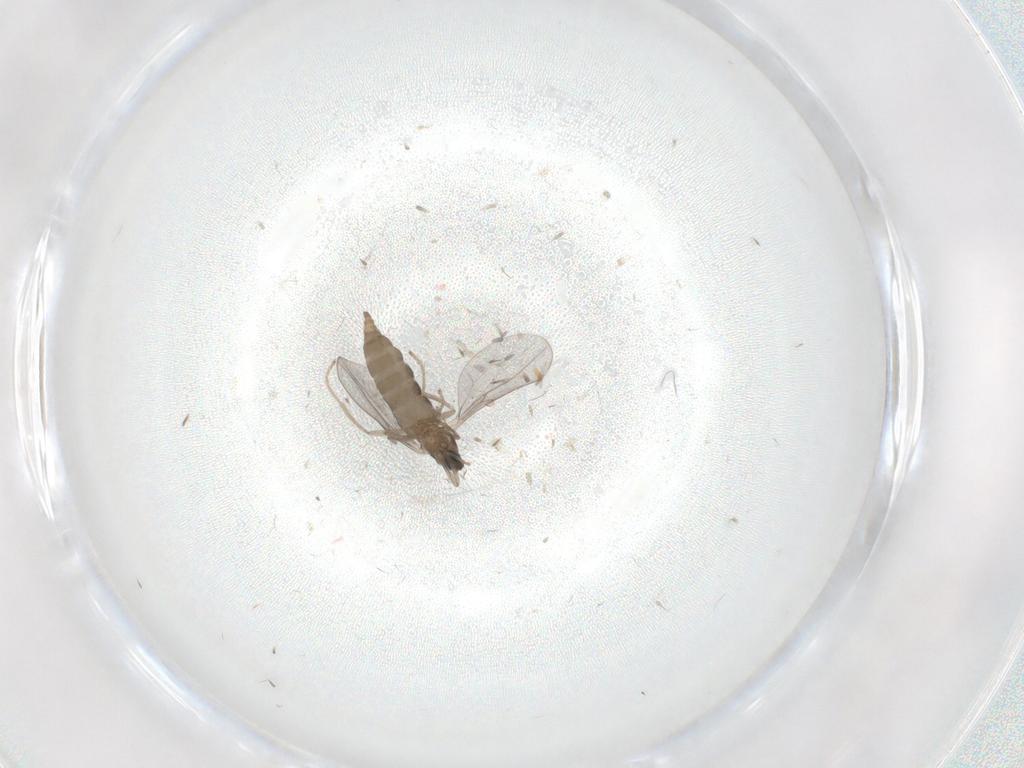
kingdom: Animalia
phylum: Arthropoda
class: Insecta
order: Diptera
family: Cecidomyiidae
